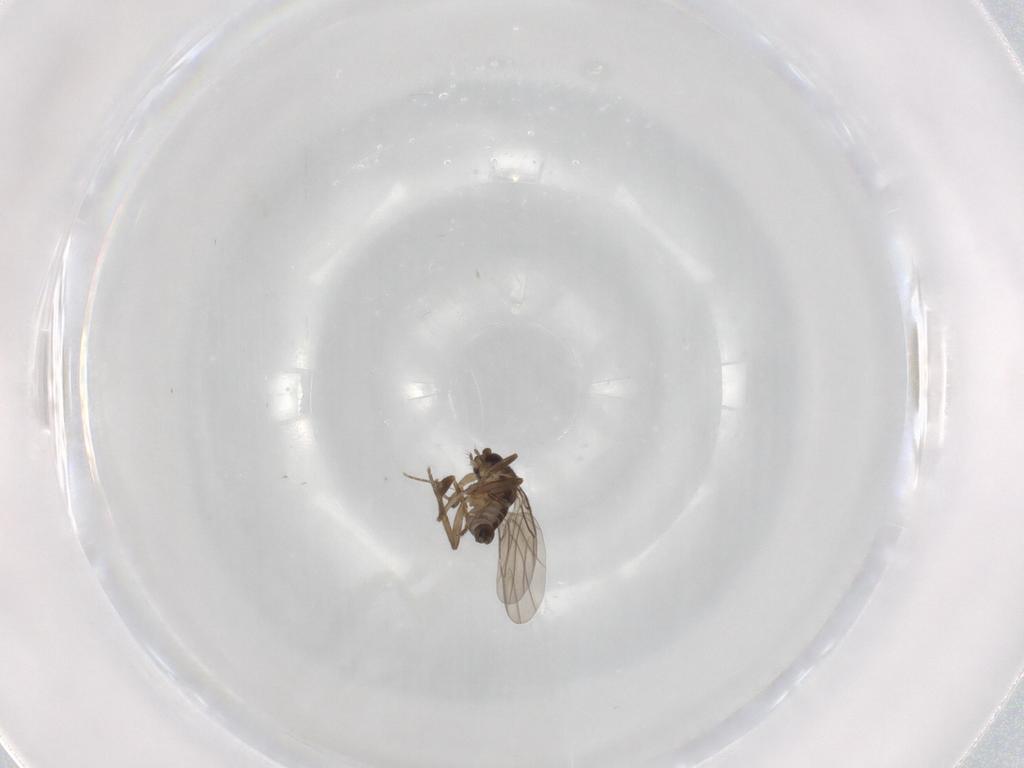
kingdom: Animalia
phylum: Arthropoda
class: Insecta
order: Diptera
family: Phoridae
